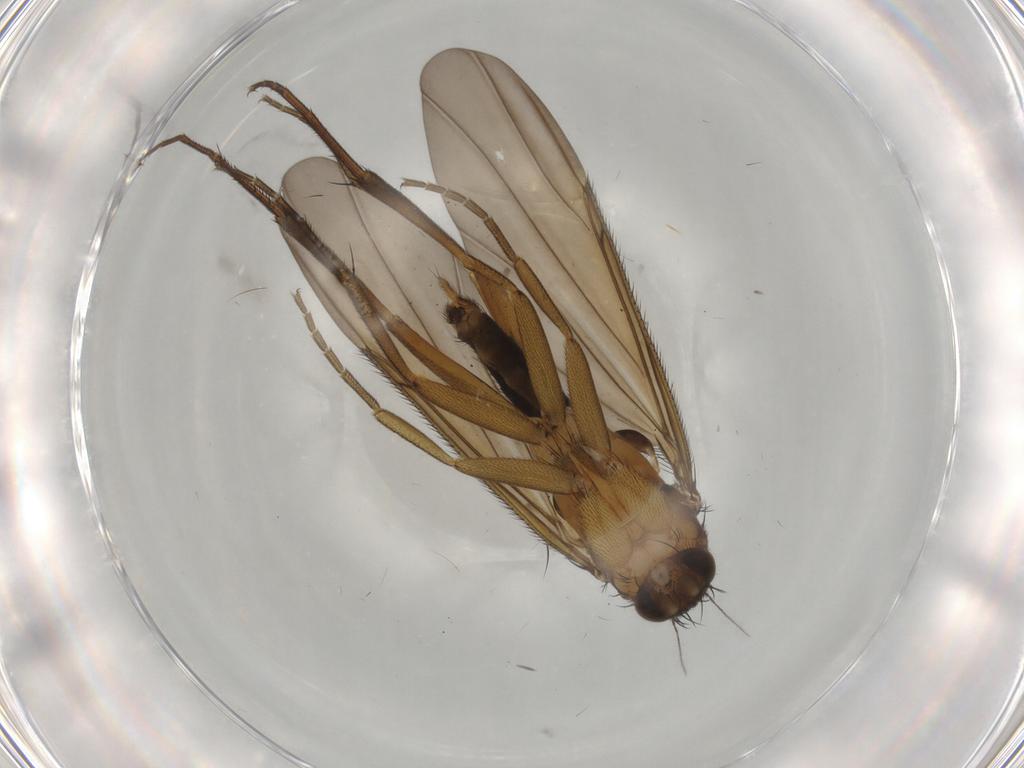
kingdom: Animalia
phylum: Arthropoda
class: Insecta
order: Diptera
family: Phoridae
